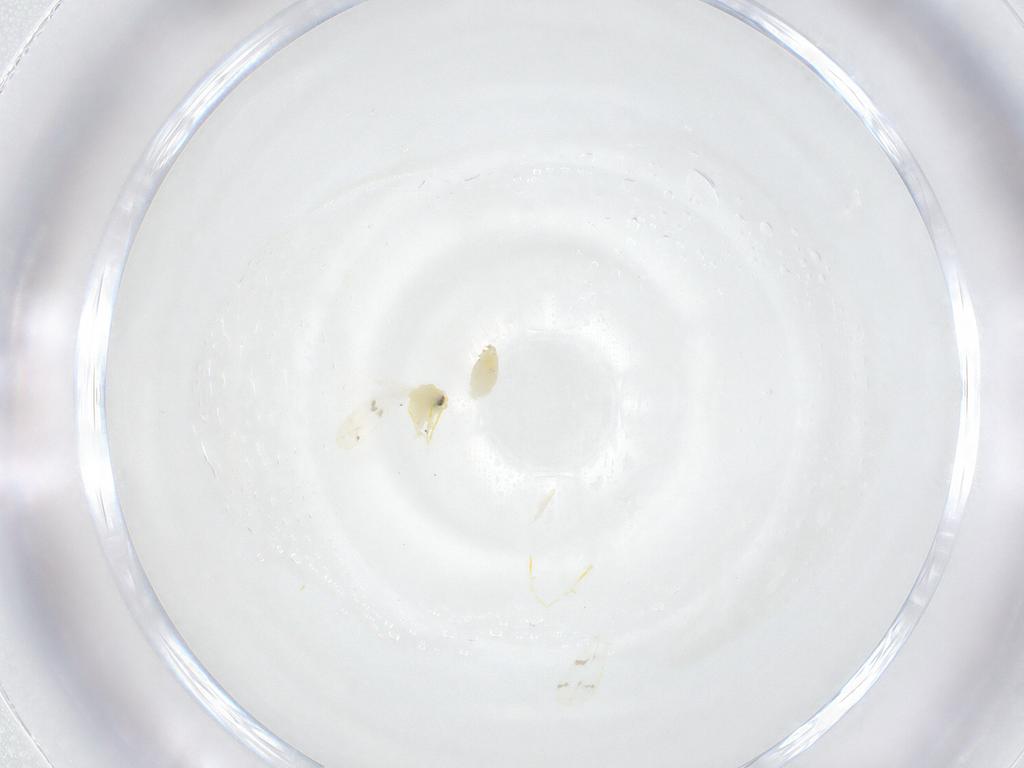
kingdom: Animalia
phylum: Arthropoda
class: Insecta
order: Hemiptera
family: Aleyrodidae
